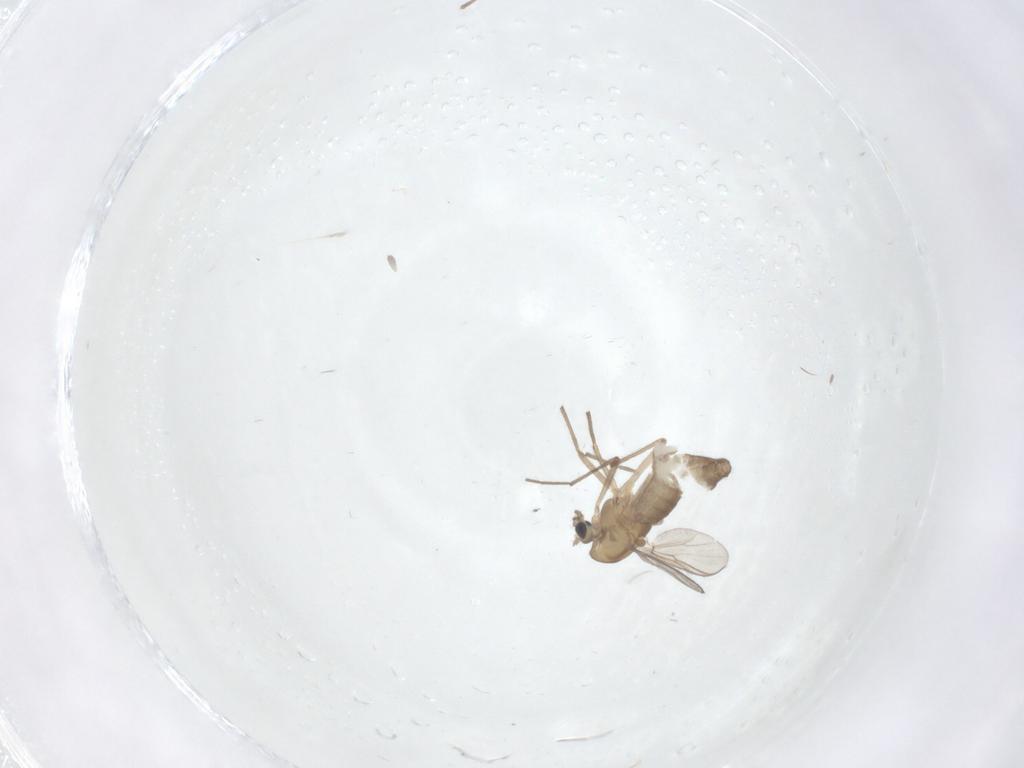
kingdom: Animalia
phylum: Arthropoda
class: Insecta
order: Diptera
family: Chironomidae
